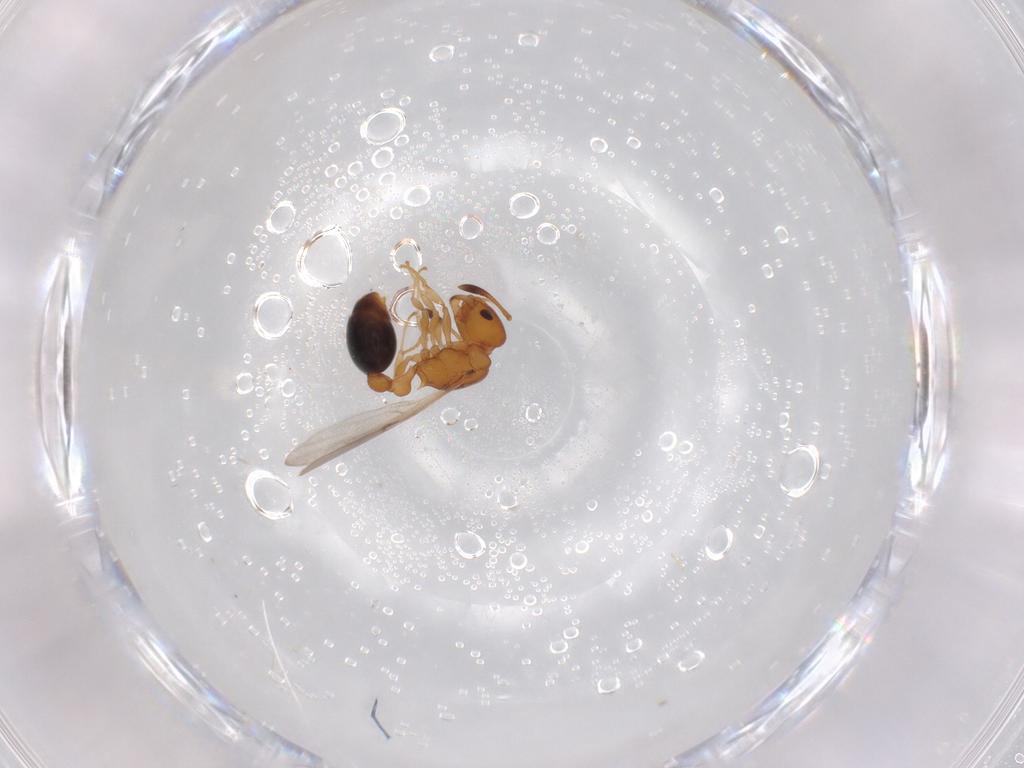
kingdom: Animalia
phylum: Arthropoda
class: Insecta
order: Hymenoptera
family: Formicidae
